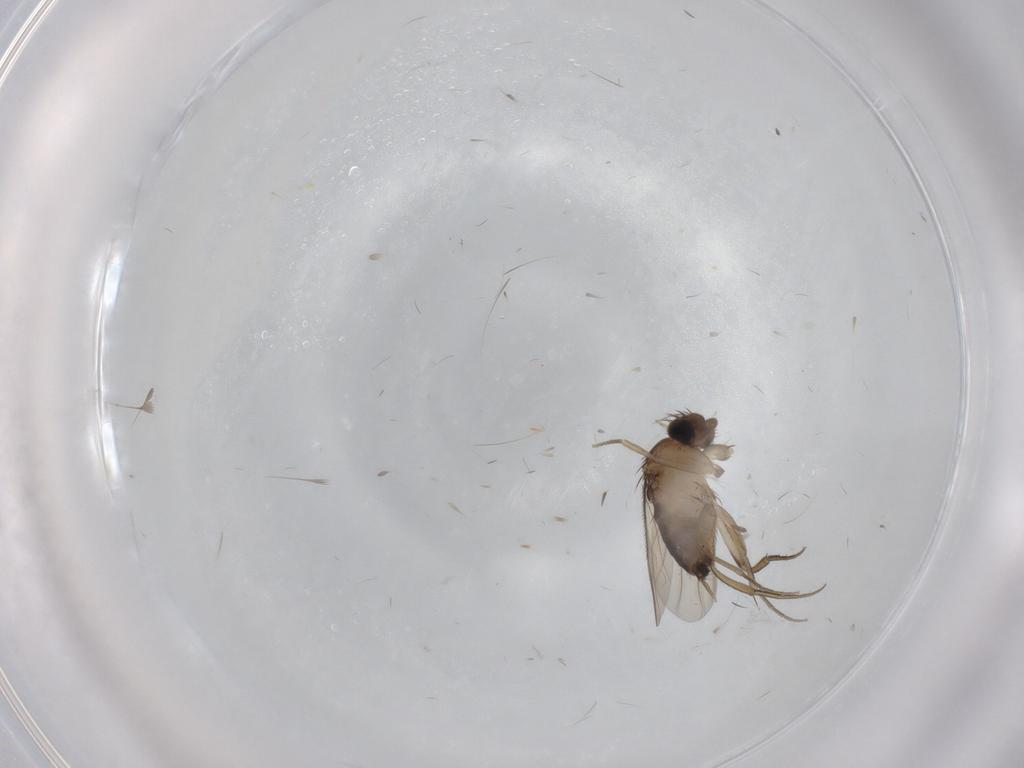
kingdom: Animalia
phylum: Arthropoda
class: Insecta
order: Diptera
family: Phoridae
